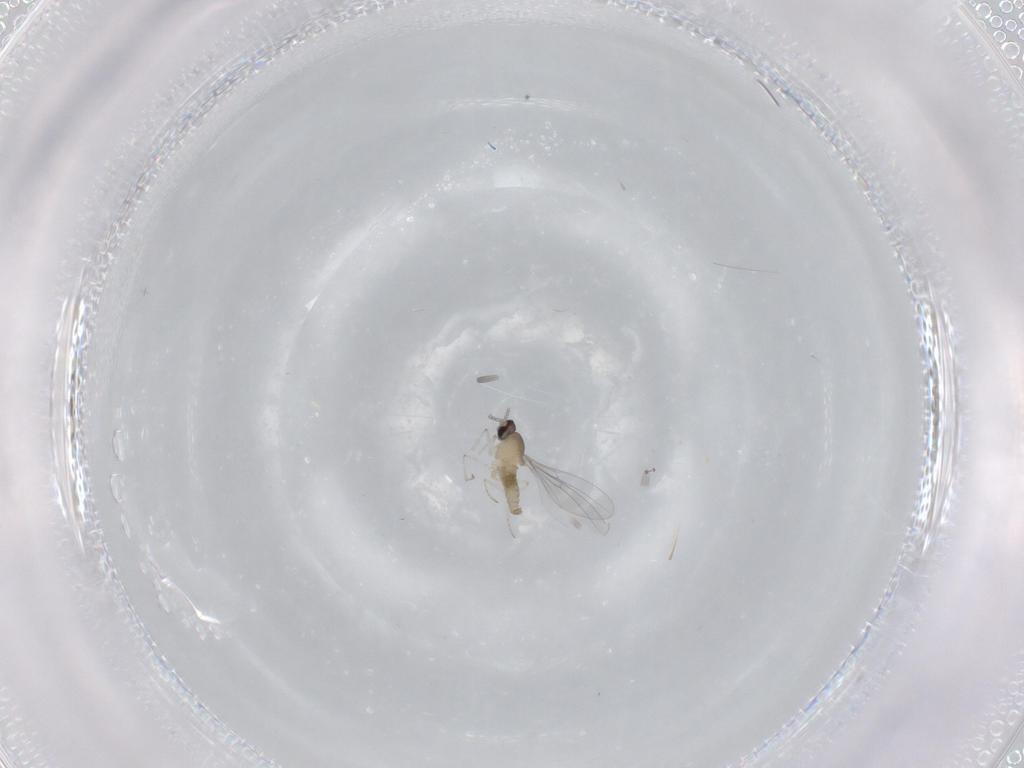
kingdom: Animalia
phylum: Arthropoda
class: Insecta
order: Diptera
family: Cecidomyiidae
